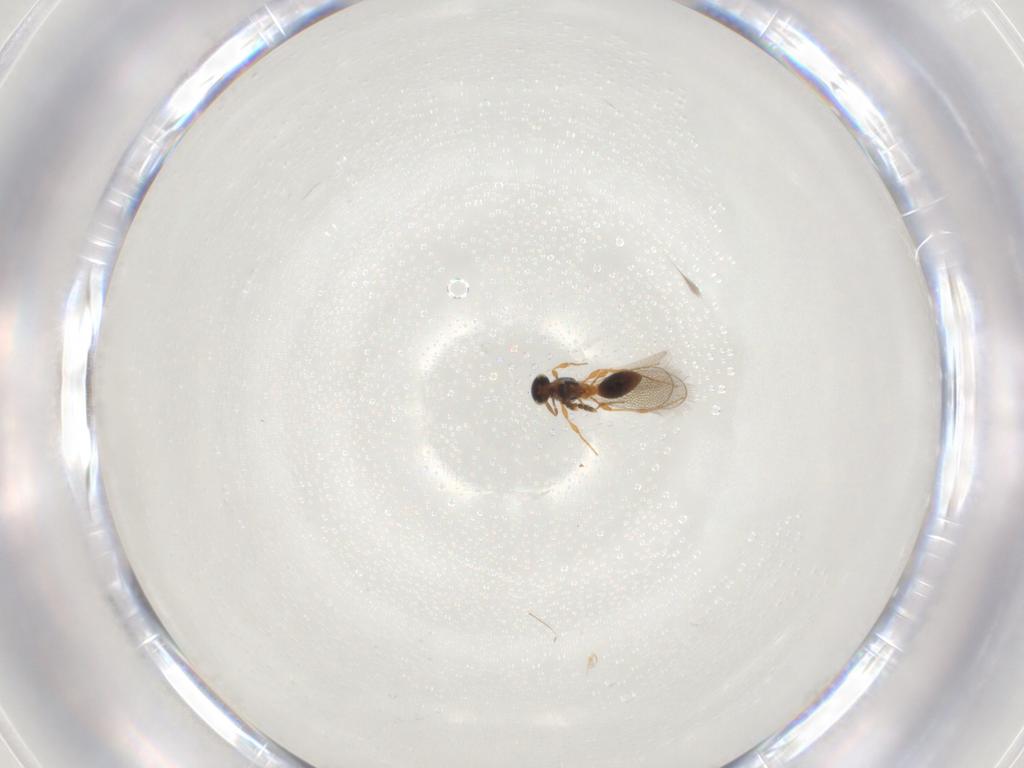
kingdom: Animalia
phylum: Arthropoda
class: Insecta
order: Hymenoptera
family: Platygastridae
